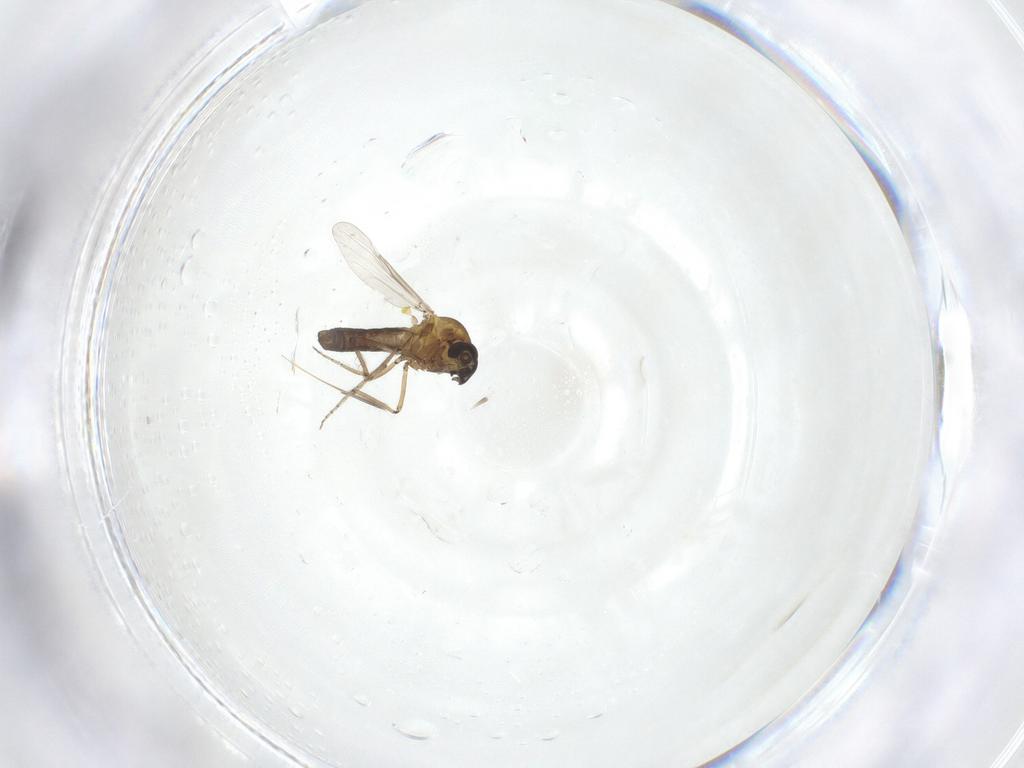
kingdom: Animalia
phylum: Arthropoda
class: Insecta
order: Diptera
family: Ceratopogonidae
